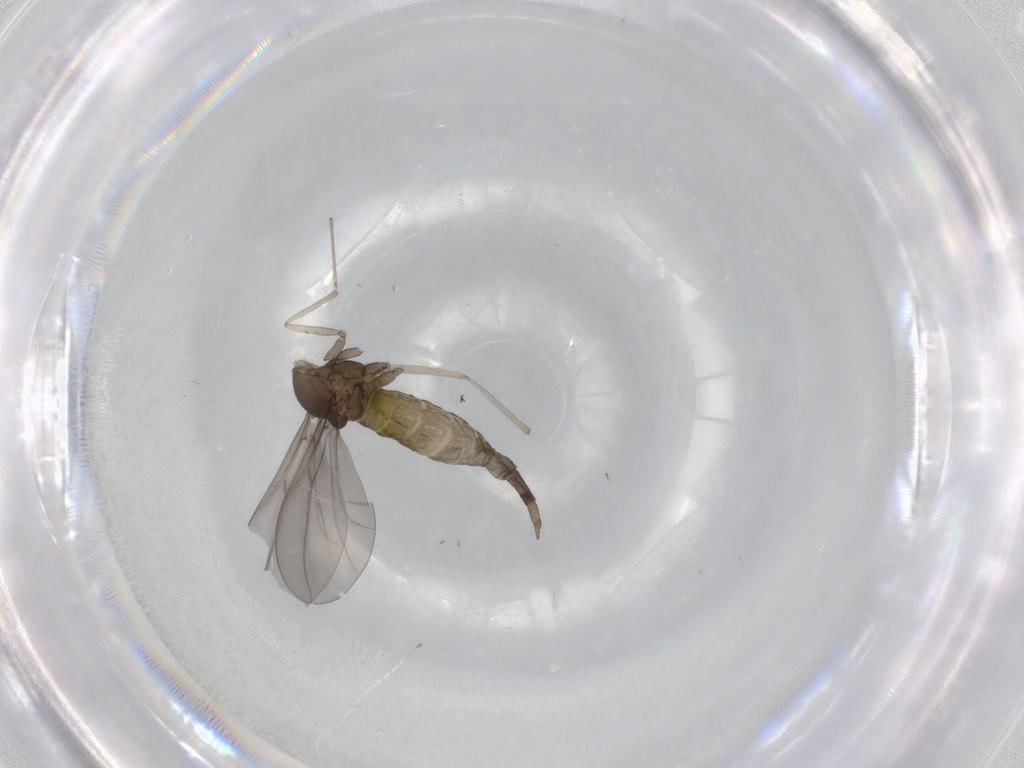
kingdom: Animalia
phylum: Arthropoda
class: Insecta
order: Diptera
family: Cecidomyiidae
